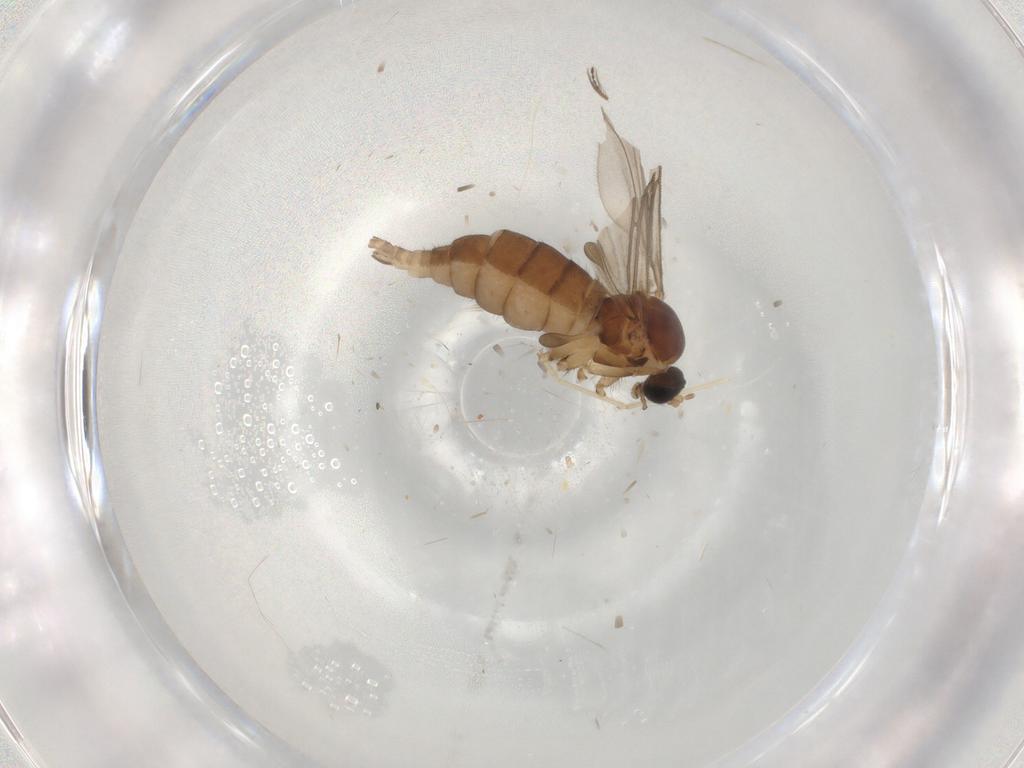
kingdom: Animalia
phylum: Arthropoda
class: Insecta
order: Diptera
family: Sciaridae
